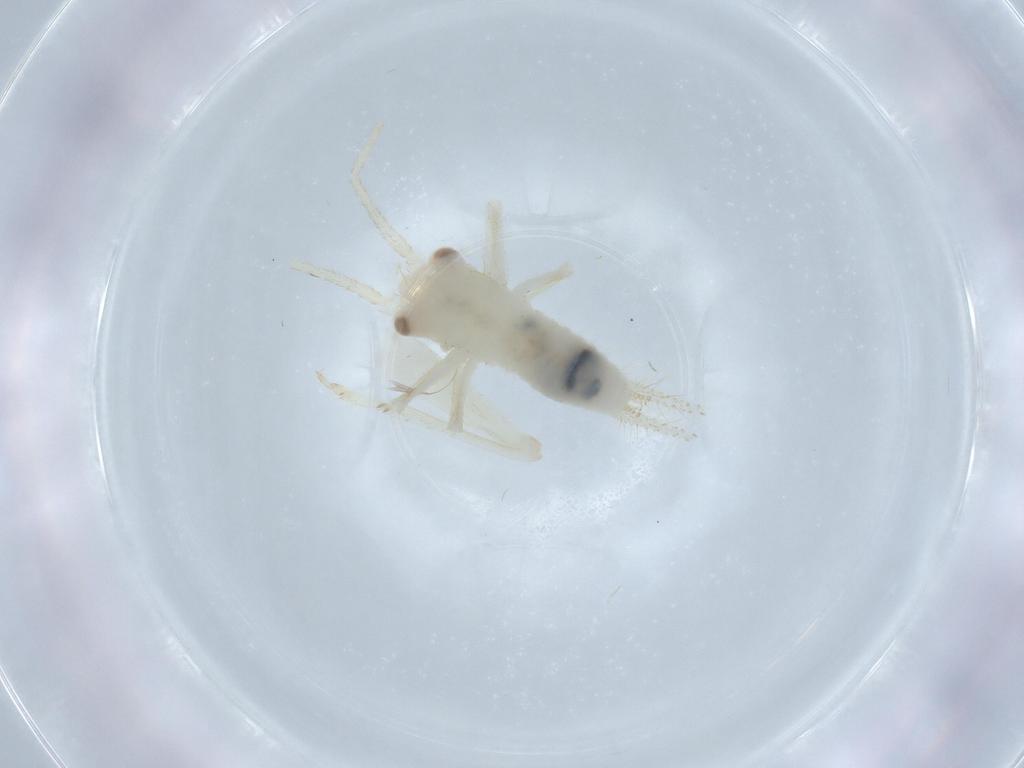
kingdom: Animalia
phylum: Arthropoda
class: Insecta
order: Orthoptera
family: Trigonidiidae
